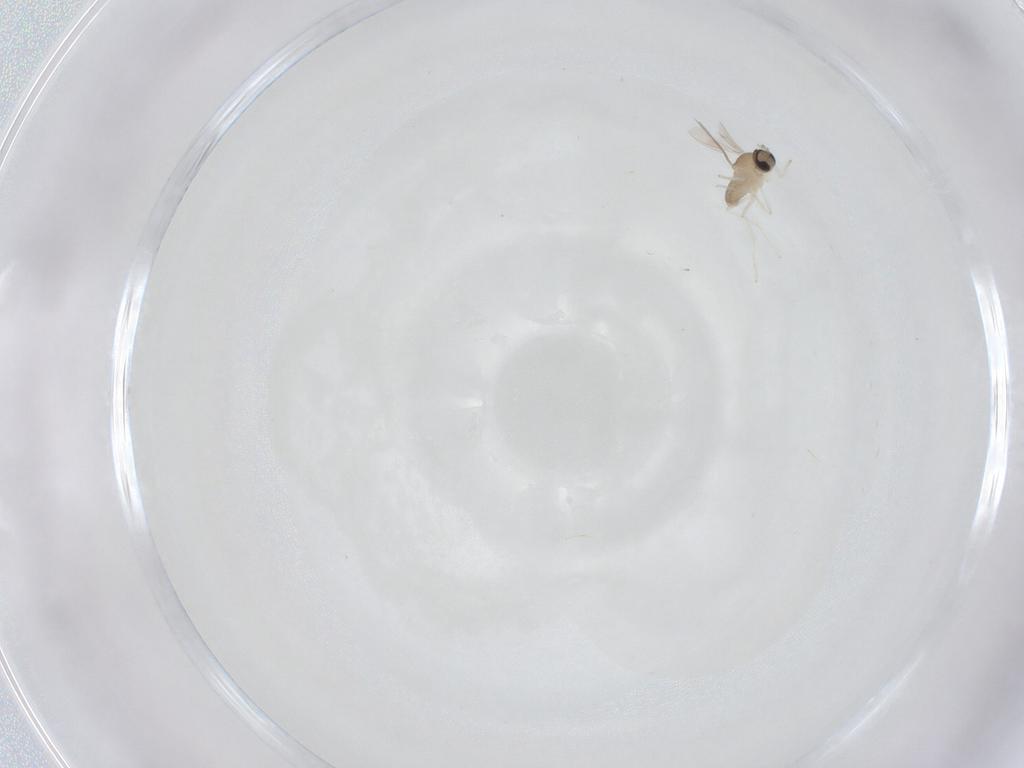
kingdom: Animalia
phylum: Arthropoda
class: Insecta
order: Diptera
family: Cecidomyiidae
